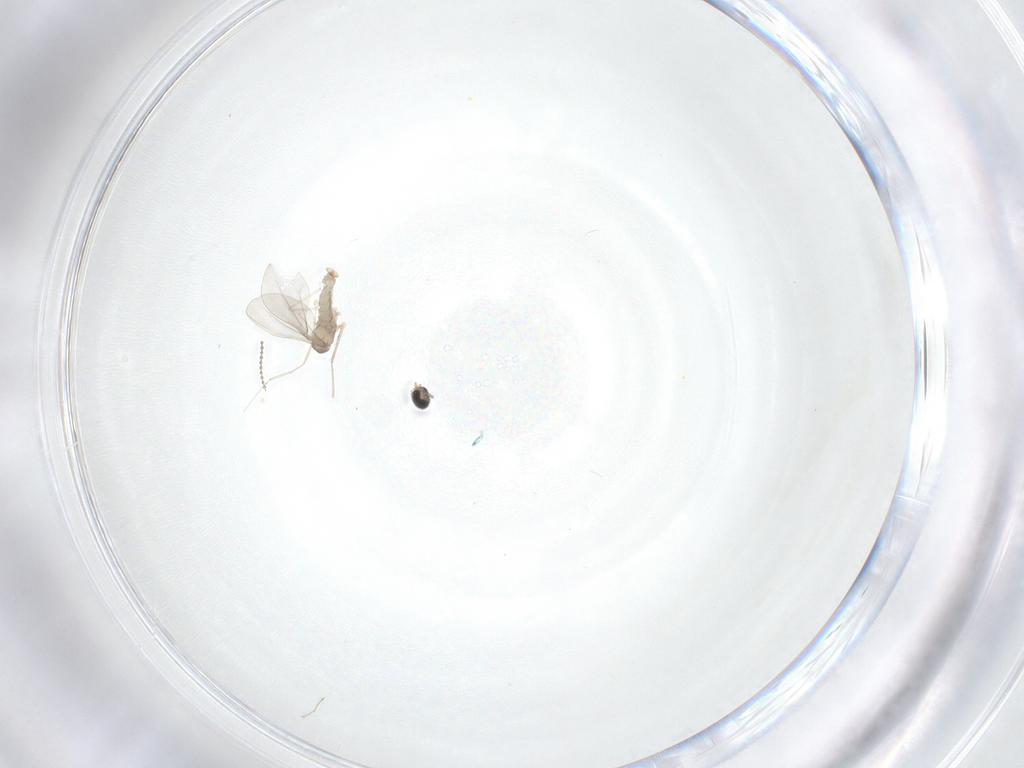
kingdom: Animalia
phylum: Arthropoda
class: Insecta
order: Diptera
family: Cecidomyiidae
